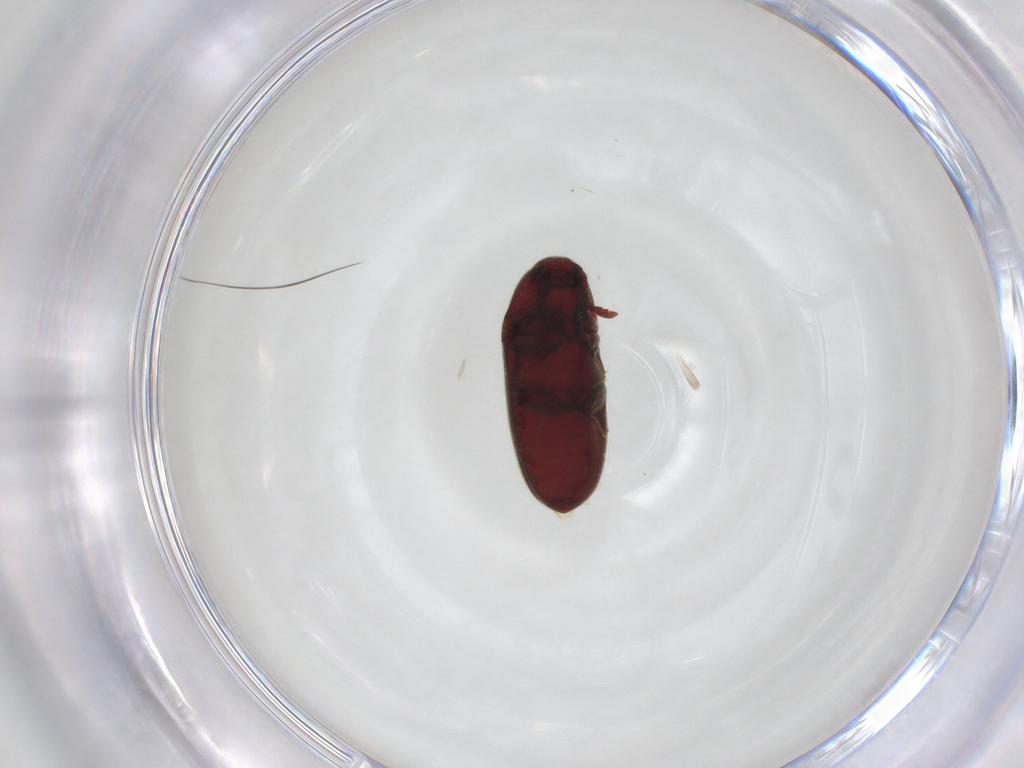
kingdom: Animalia
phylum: Arthropoda
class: Insecta
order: Coleoptera
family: Throscidae
